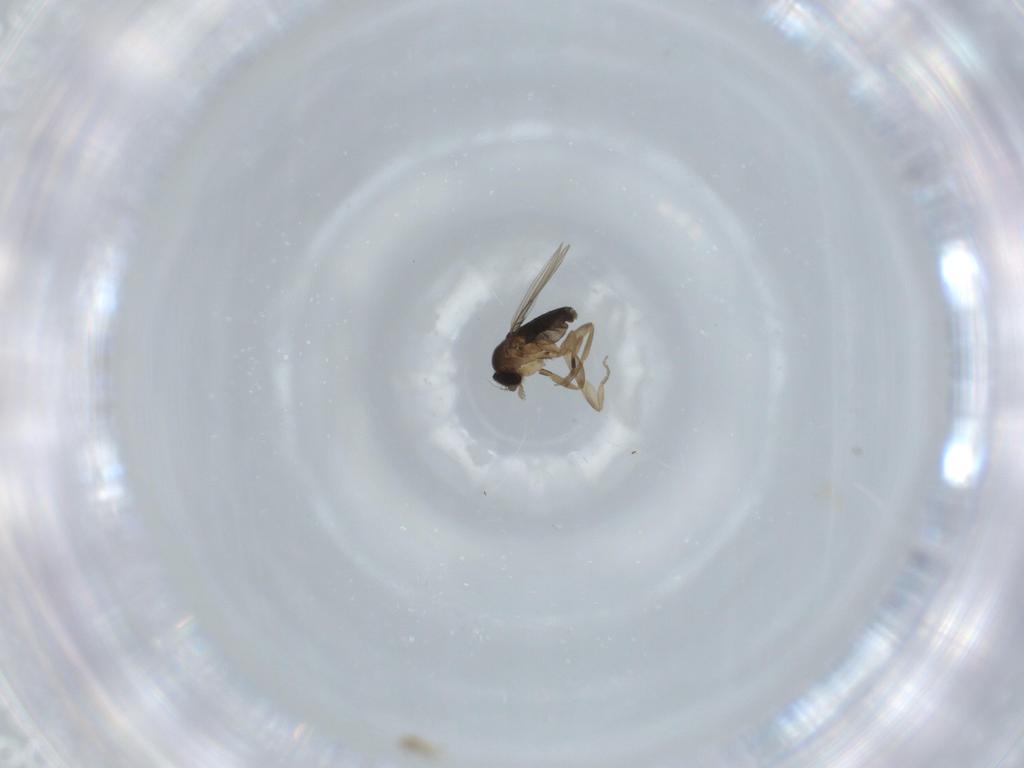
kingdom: Animalia
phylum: Arthropoda
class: Insecta
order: Diptera
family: Phoridae
